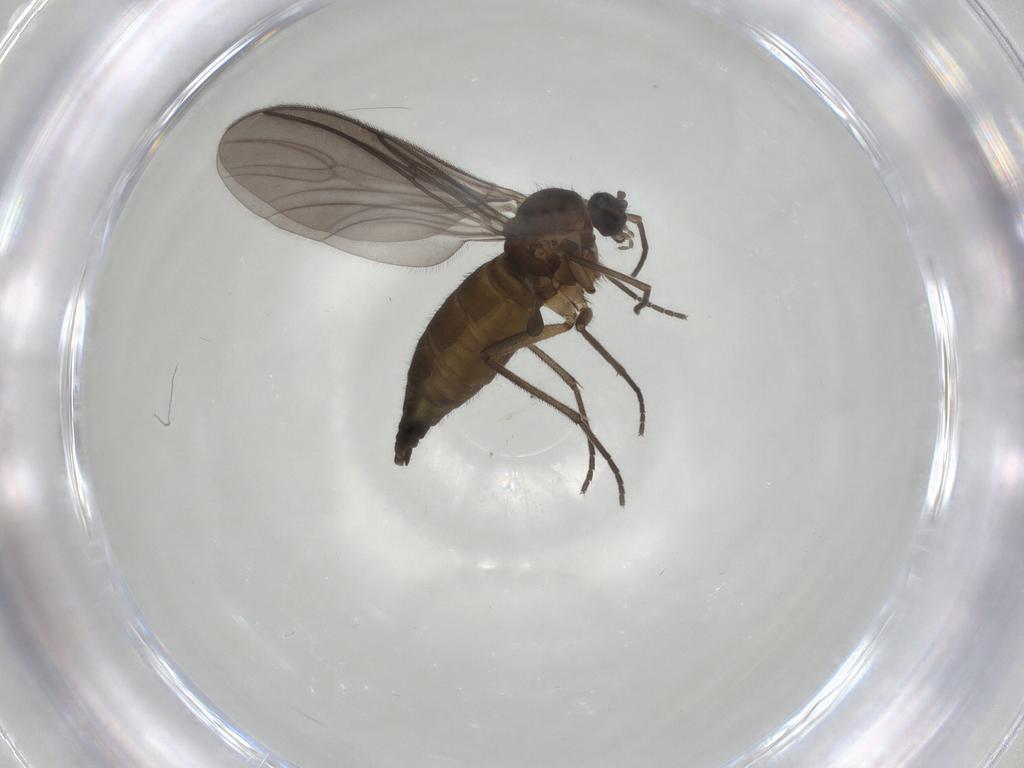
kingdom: Animalia
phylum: Arthropoda
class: Insecta
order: Diptera
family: Sciaridae
